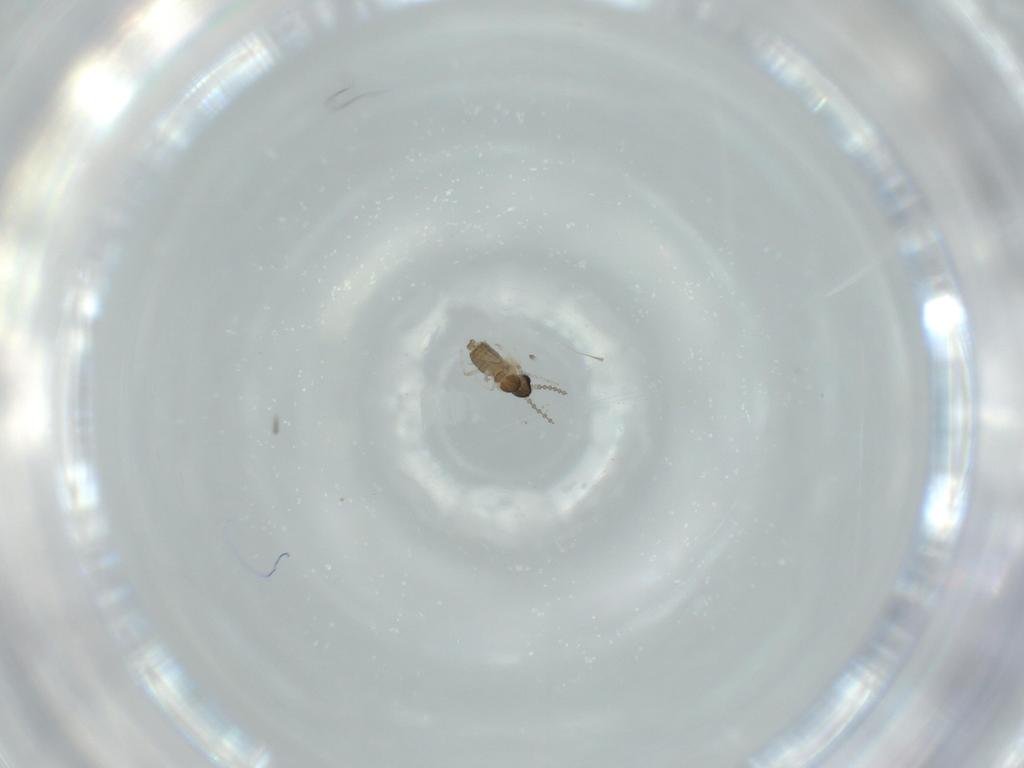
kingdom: Animalia
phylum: Arthropoda
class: Insecta
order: Diptera
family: Cecidomyiidae
